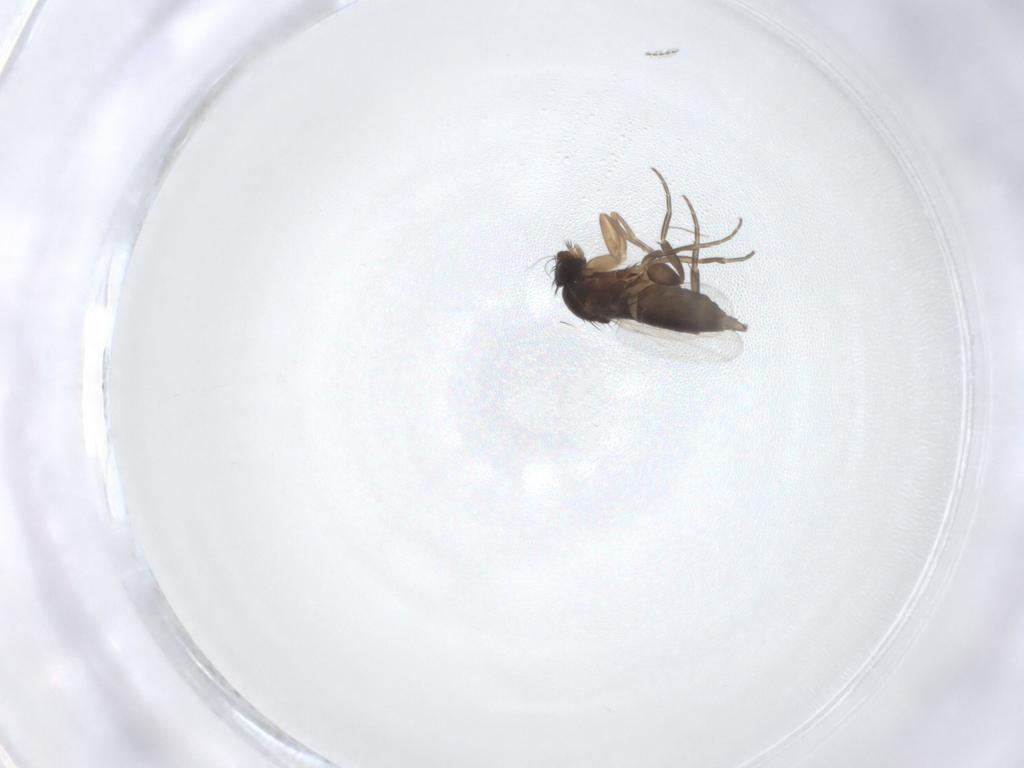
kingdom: Animalia
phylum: Arthropoda
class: Insecta
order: Diptera
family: Phoridae
